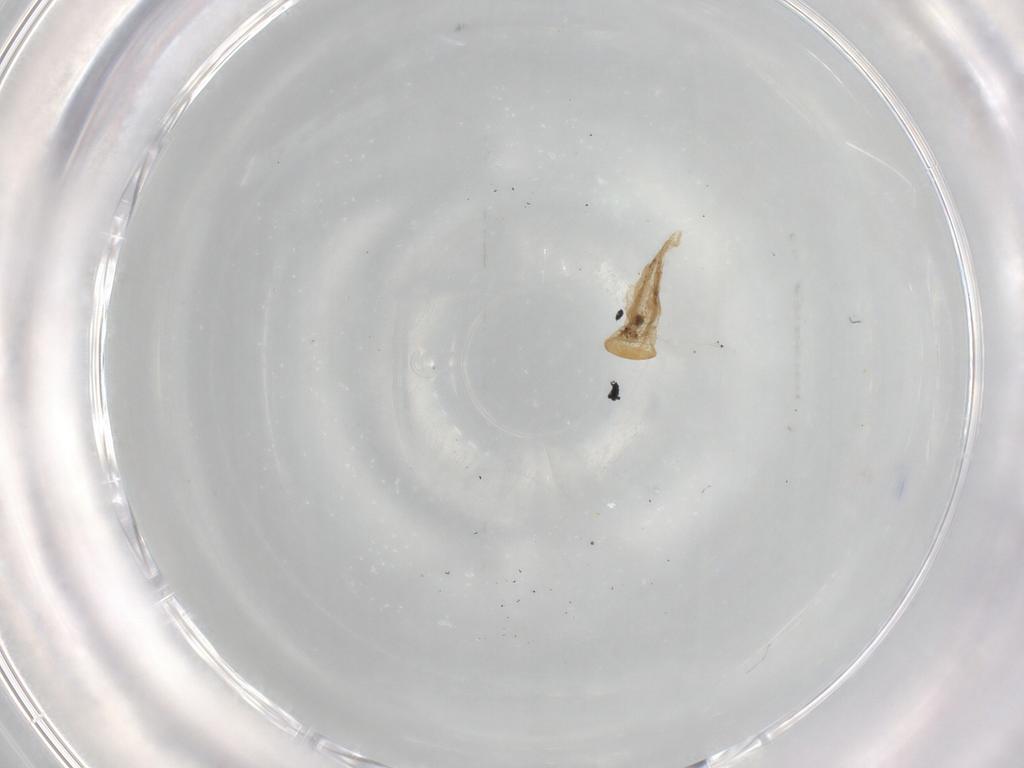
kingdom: Animalia
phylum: Arthropoda
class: Insecta
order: Hymenoptera
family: Eulophidae
